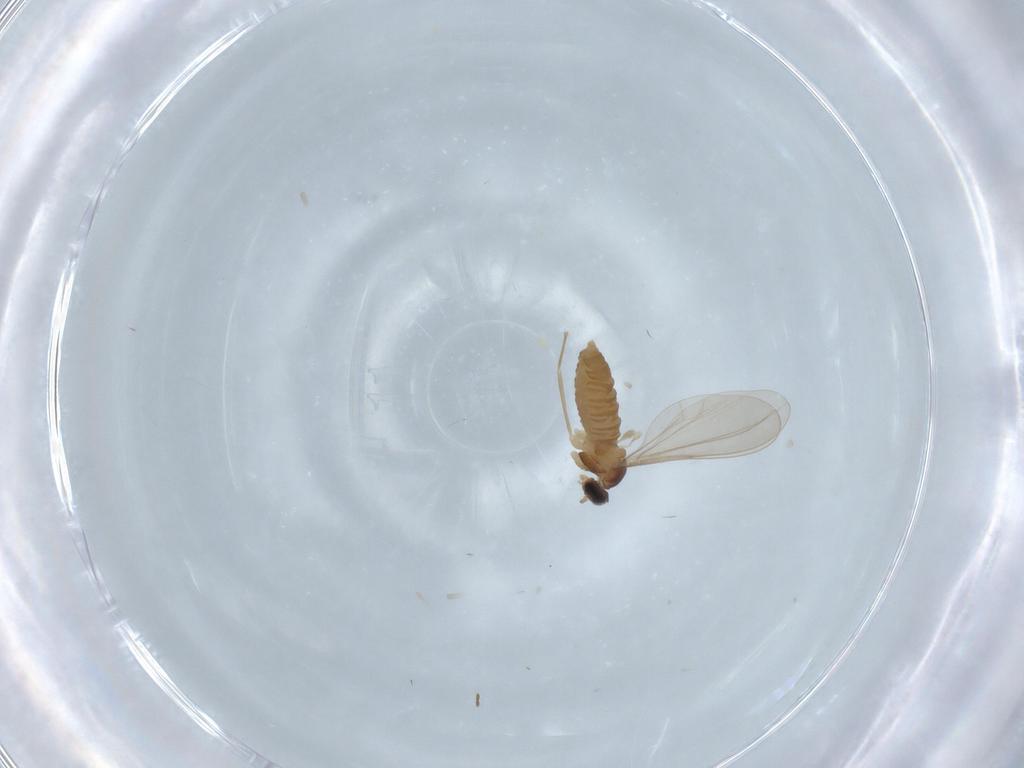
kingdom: Animalia
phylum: Arthropoda
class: Insecta
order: Diptera
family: Cecidomyiidae
